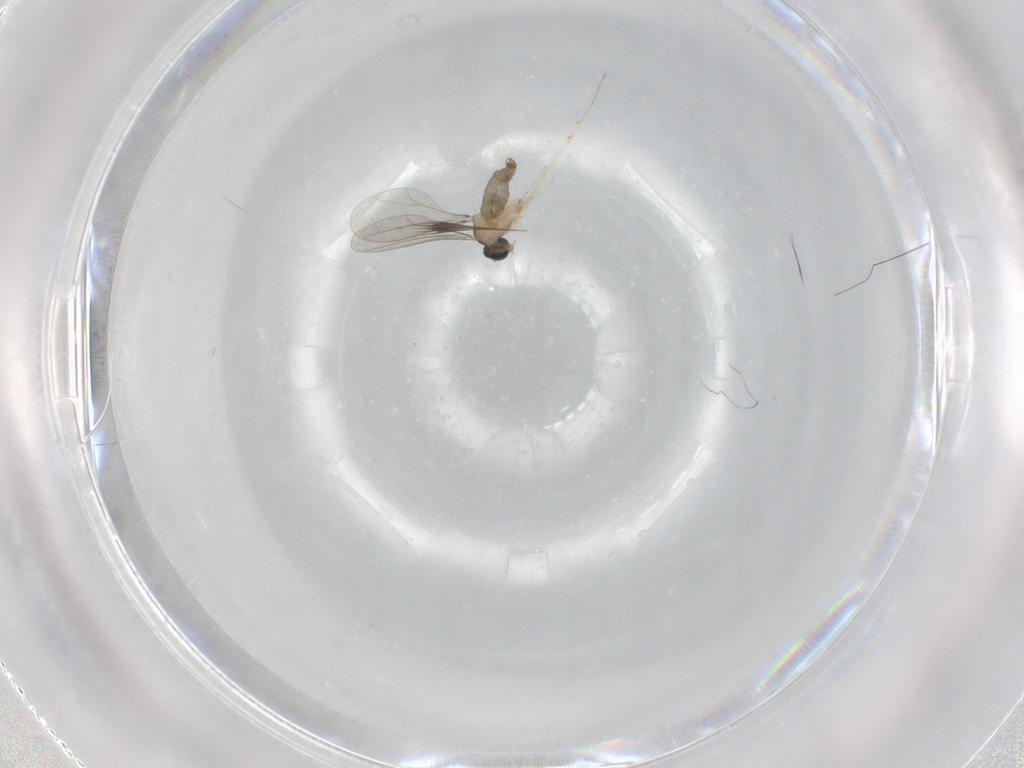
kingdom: Animalia
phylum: Arthropoda
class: Insecta
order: Diptera
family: Cecidomyiidae
